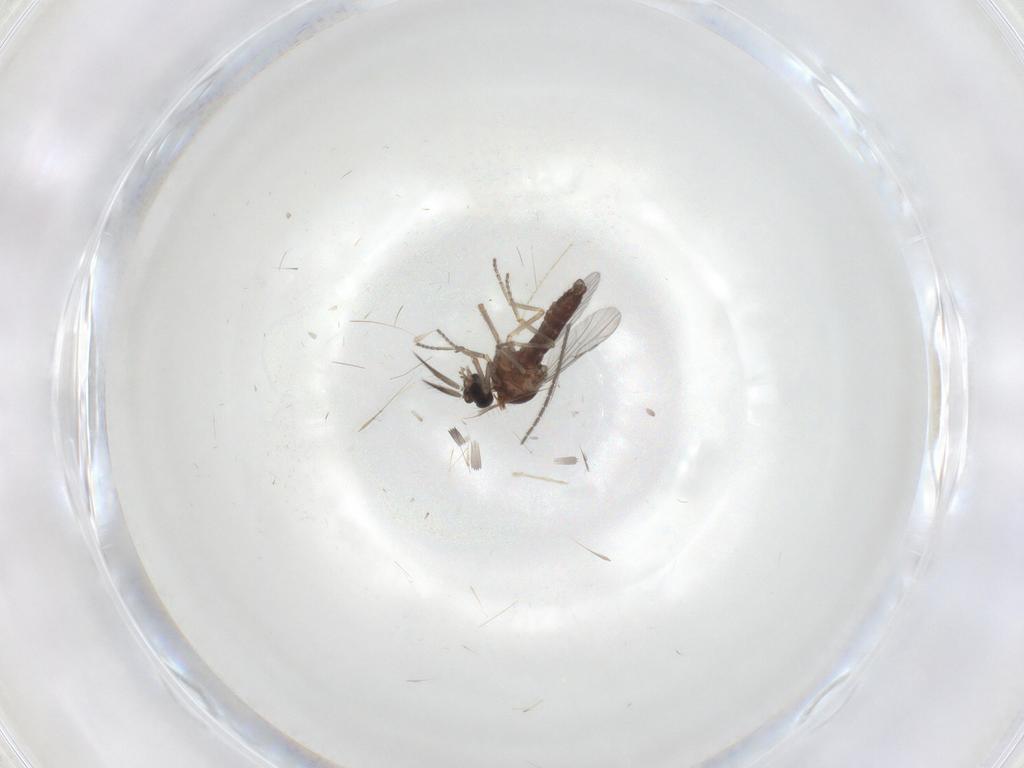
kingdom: Animalia
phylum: Arthropoda
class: Insecta
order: Diptera
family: Ceratopogonidae
